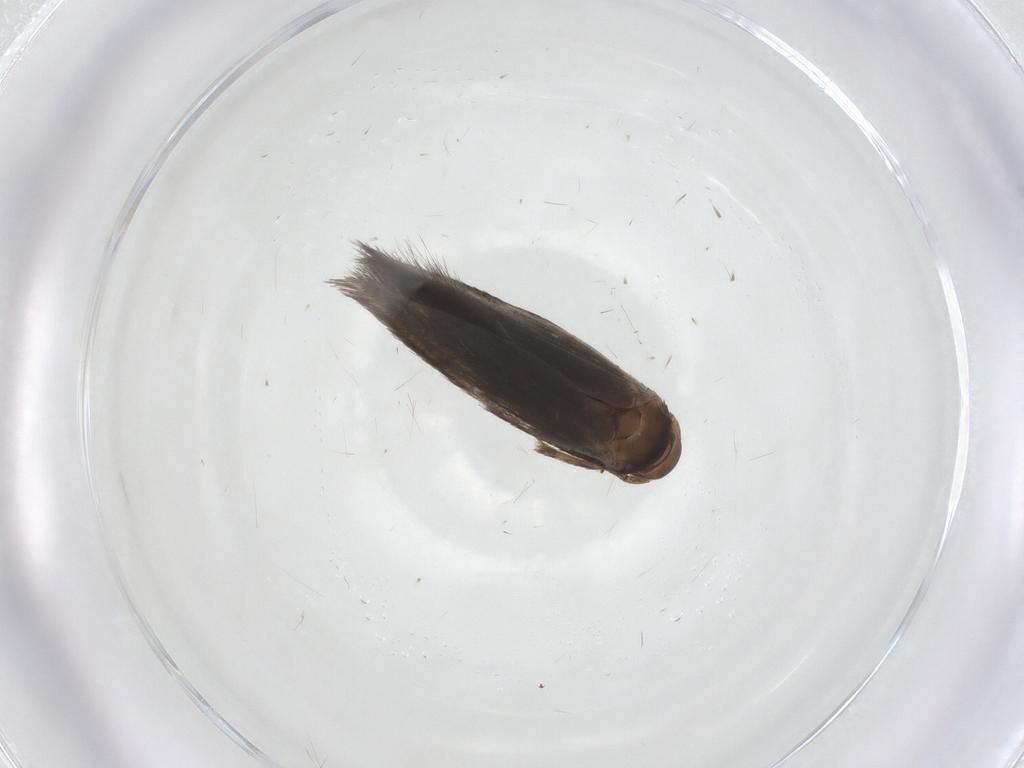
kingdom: Animalia
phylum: Arthropoda
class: Insecta
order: Lepidoptera
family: Elachistidae
